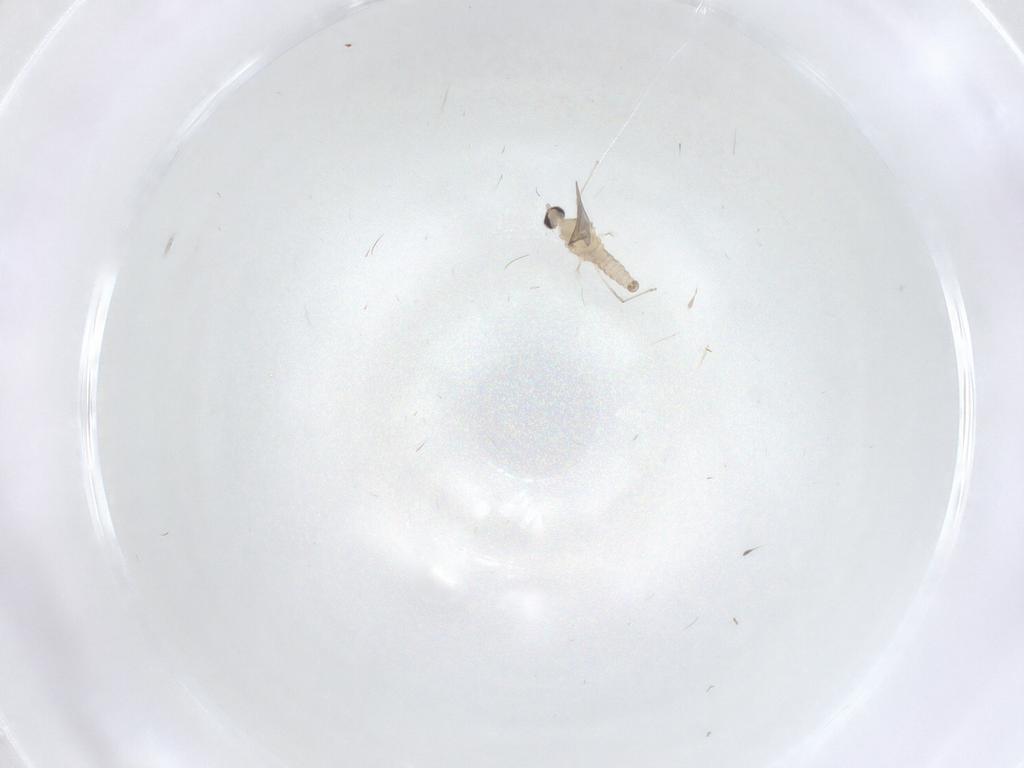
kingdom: Animalia
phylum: Arthropoda
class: Insecta
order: Diptera
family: Cecidomyiidae
